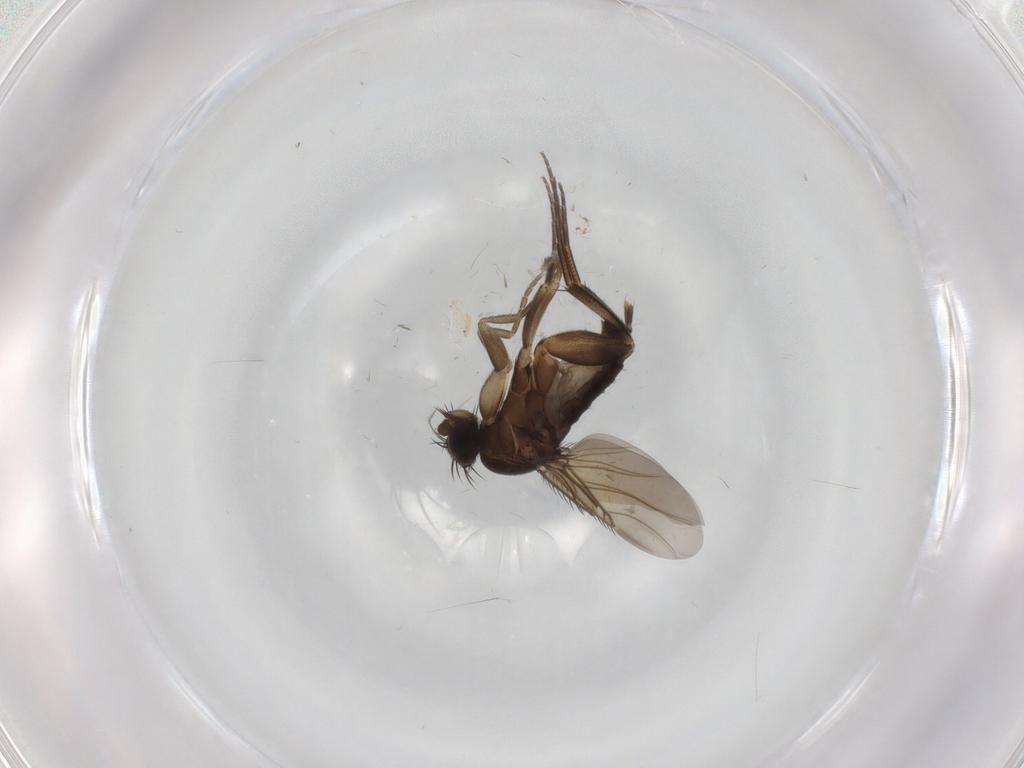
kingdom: Animalia
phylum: Arthropoda
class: Insecta
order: Diptera
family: Phoridae
